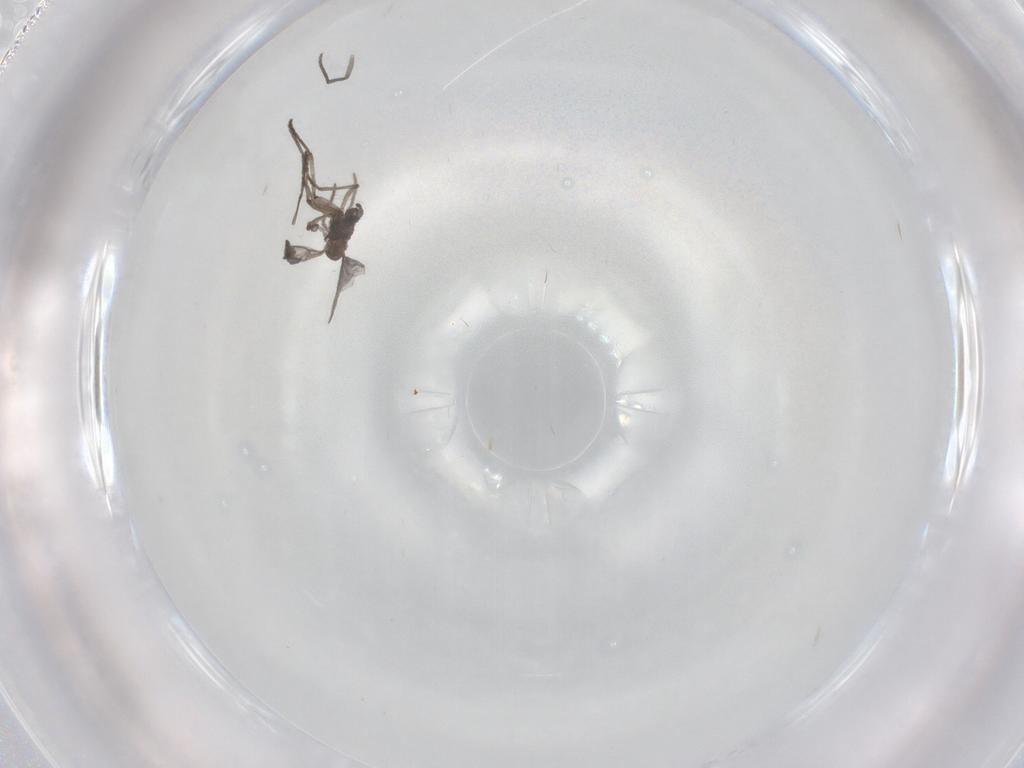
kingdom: Animalia
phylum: Arthropoda
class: Insecta
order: Diptera
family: Sciaridae
